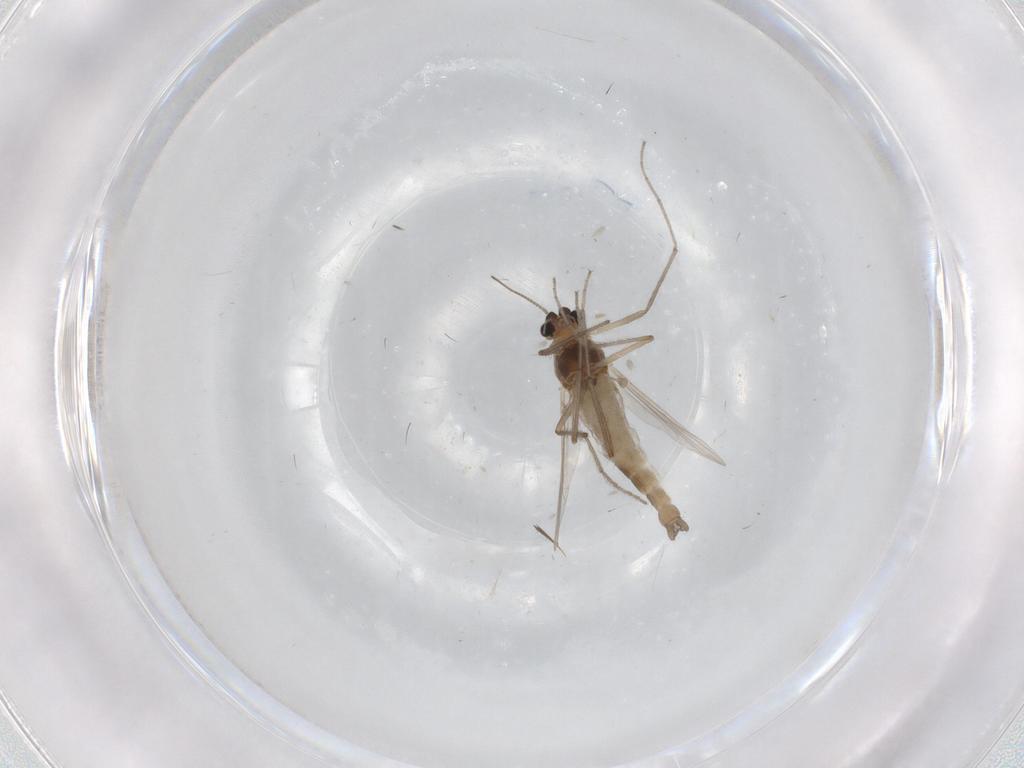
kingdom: Animalia
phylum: Arthropoda
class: Insecta
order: Diptera
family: Chironomidae
